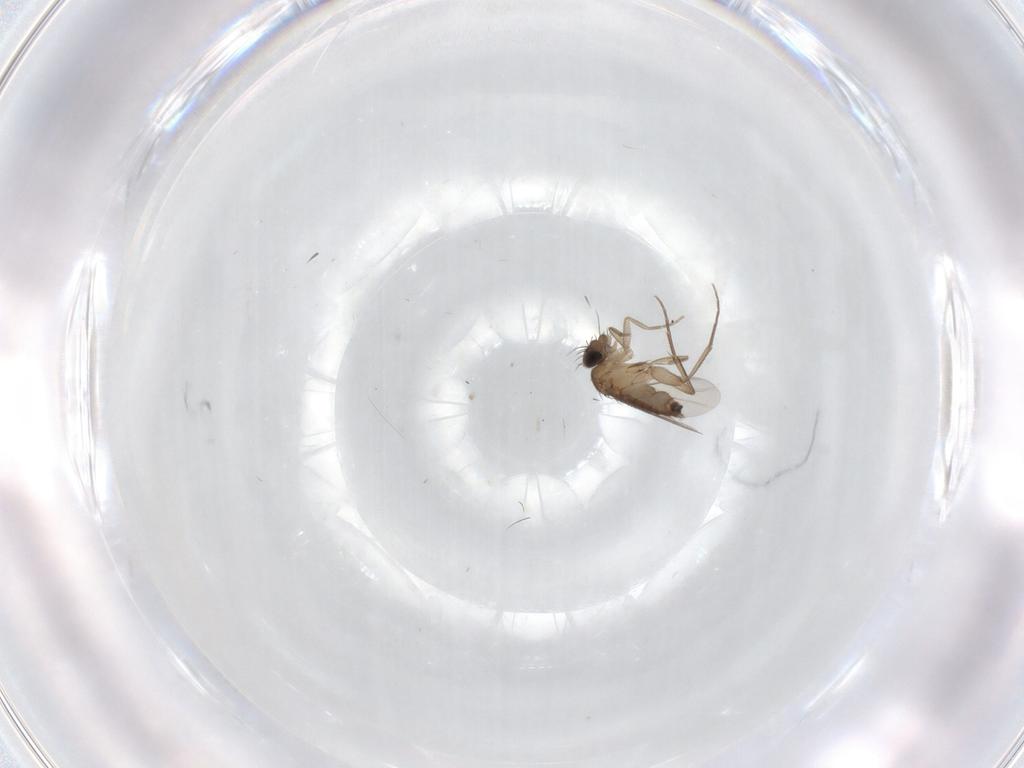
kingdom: Animalia
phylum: Arthropoda
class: Insecta
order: Diptera
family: Phoridae
